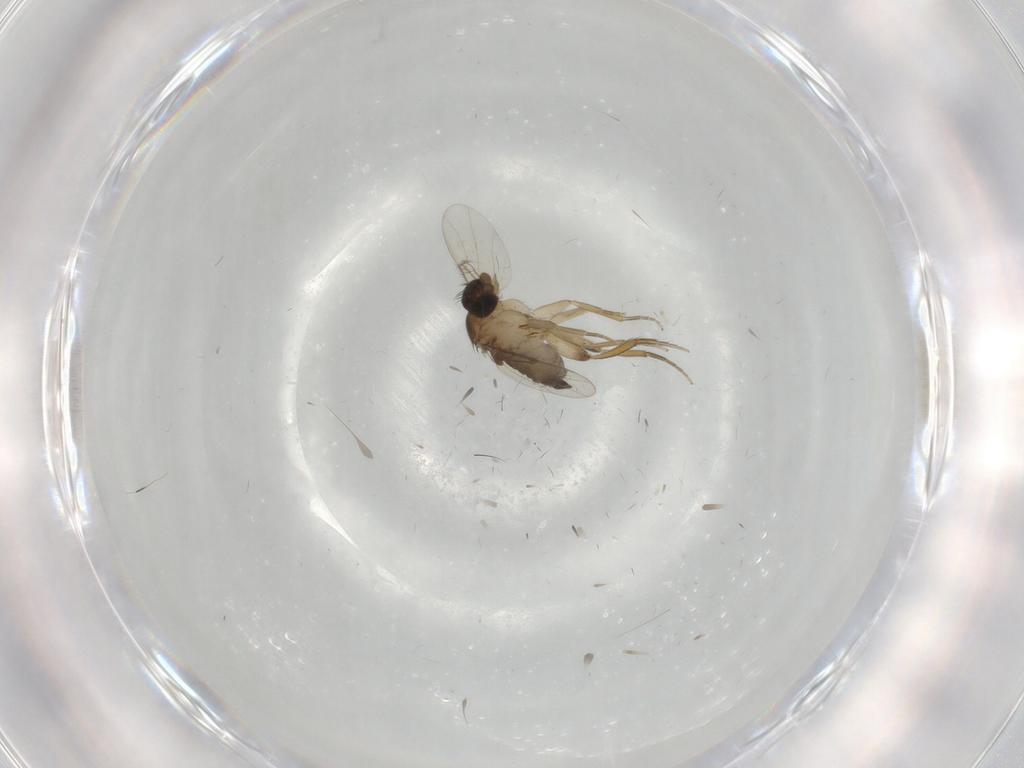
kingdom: Animalia
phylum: Arthropoda
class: Insecta
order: Diptera
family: Phoridae
